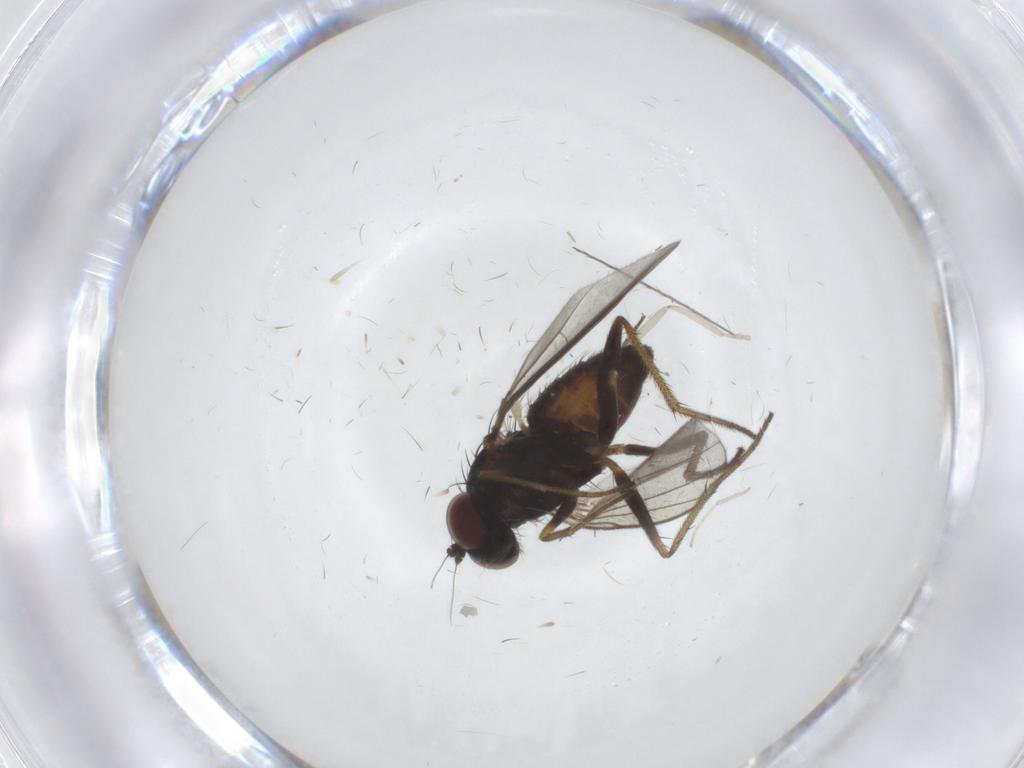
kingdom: Animalia
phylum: Arthropoda
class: Insecta
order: Diptera
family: Cecidomyiidae
